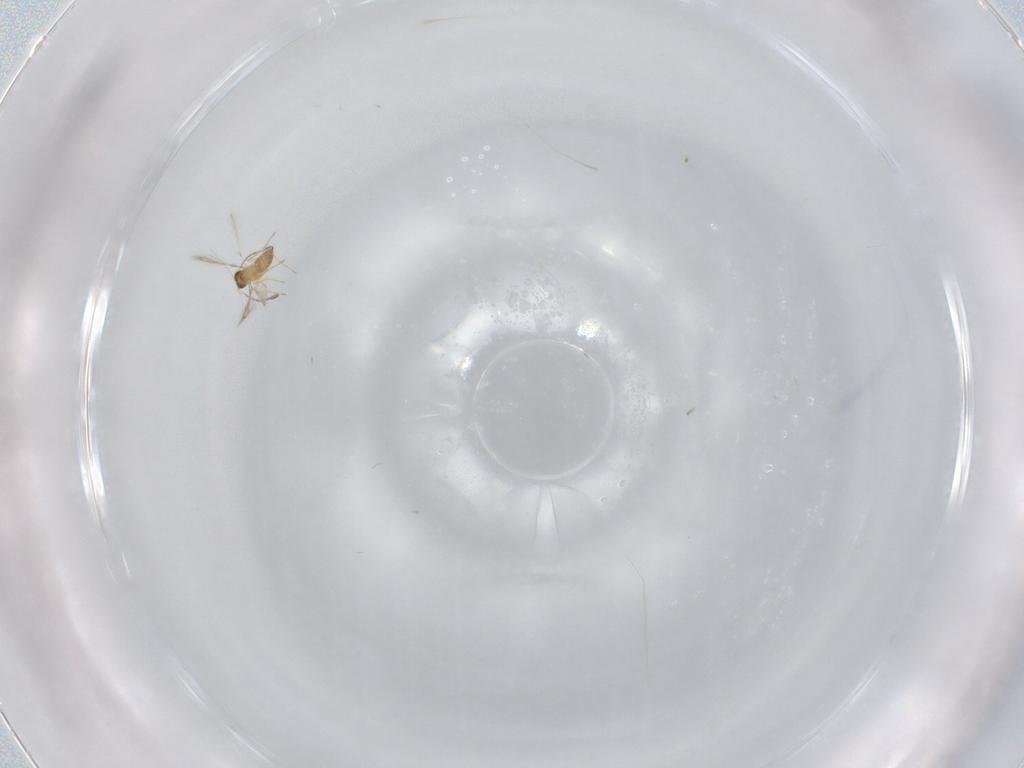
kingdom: Animalia
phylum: Arthropoda
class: Insecta
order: Hymenoptera
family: Mymaridae
